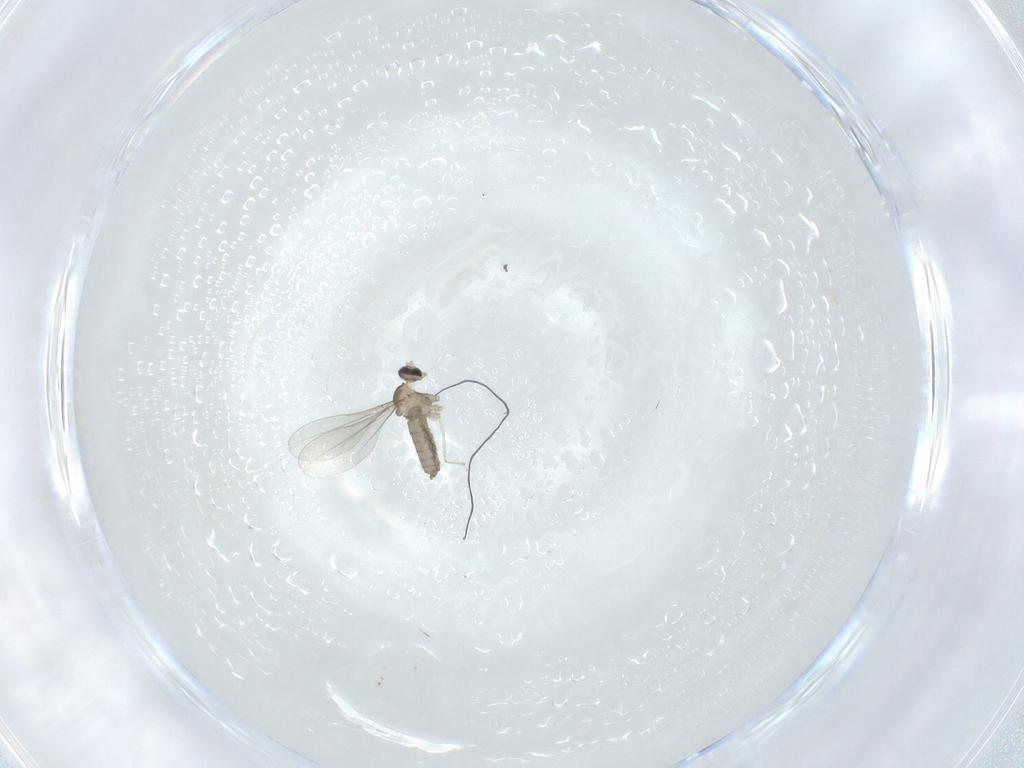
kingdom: Animalia
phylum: Arthropoda
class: Insecta
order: Diptera
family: Cecidomyiidae
